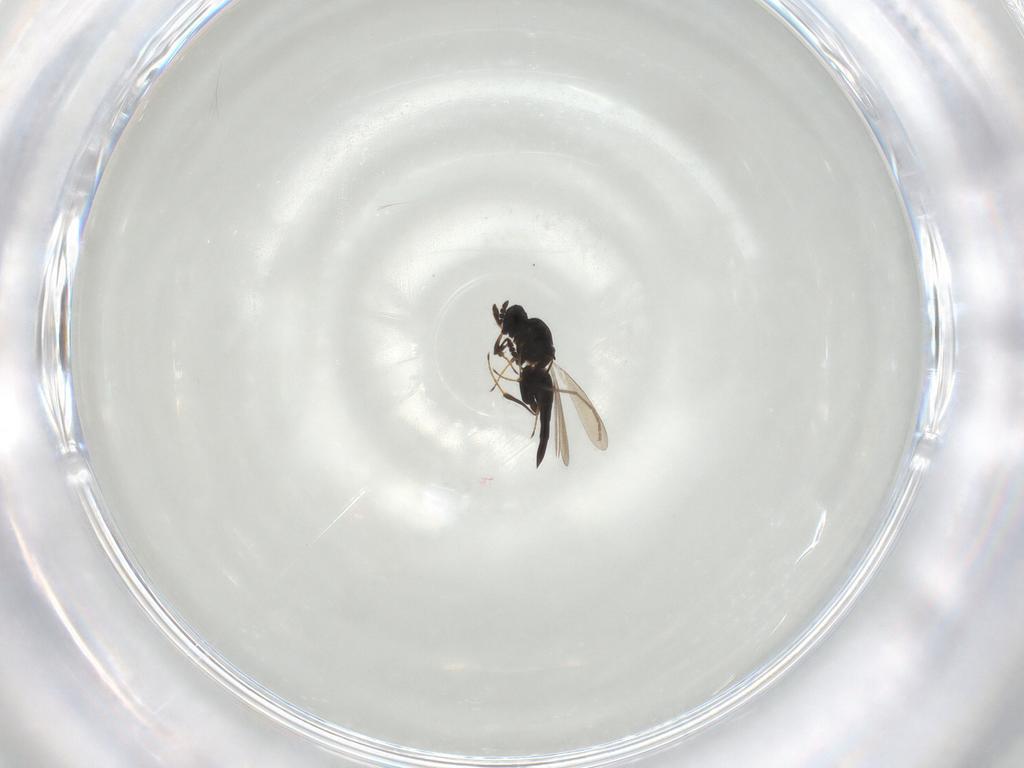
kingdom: Animalia
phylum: Arthropoda
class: Insecta
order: Hymenoptera
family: Platygastridae
